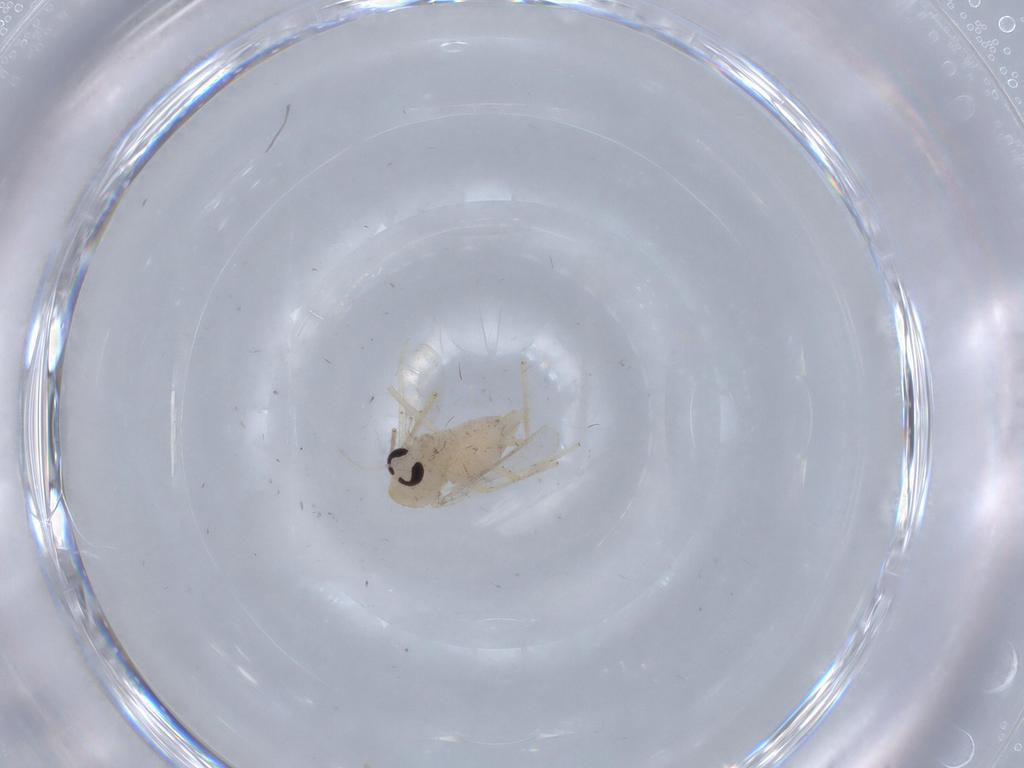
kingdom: Animalia
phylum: Arthropoda
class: Insecta
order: Diptera
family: Chironomidae
